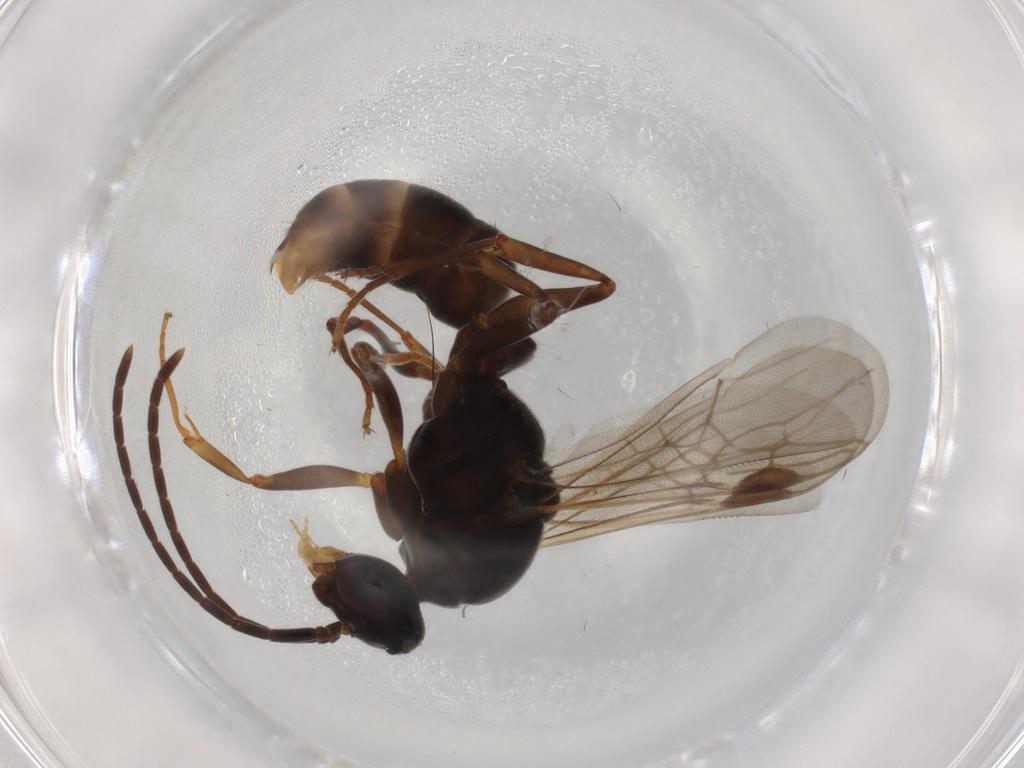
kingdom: Animalia
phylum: Arthropoda
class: Insecta
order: Hymenoptera
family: Formicidae
